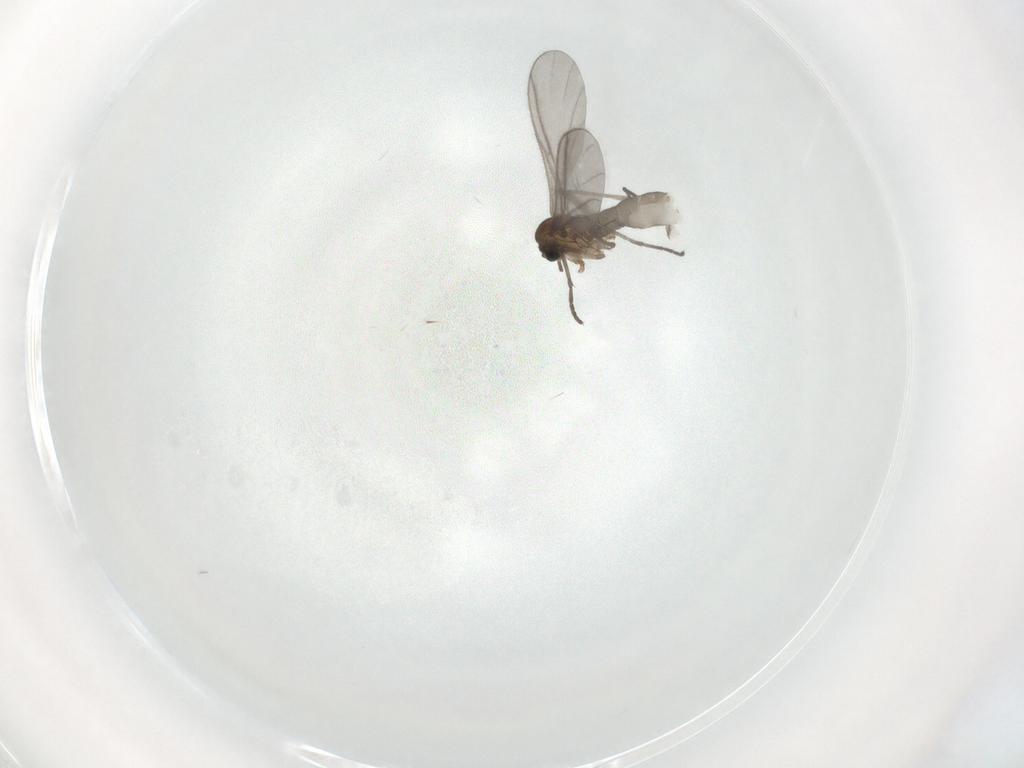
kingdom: Animalia
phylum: Arthropoda
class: Insecta
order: Diptera
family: Sciaridae
